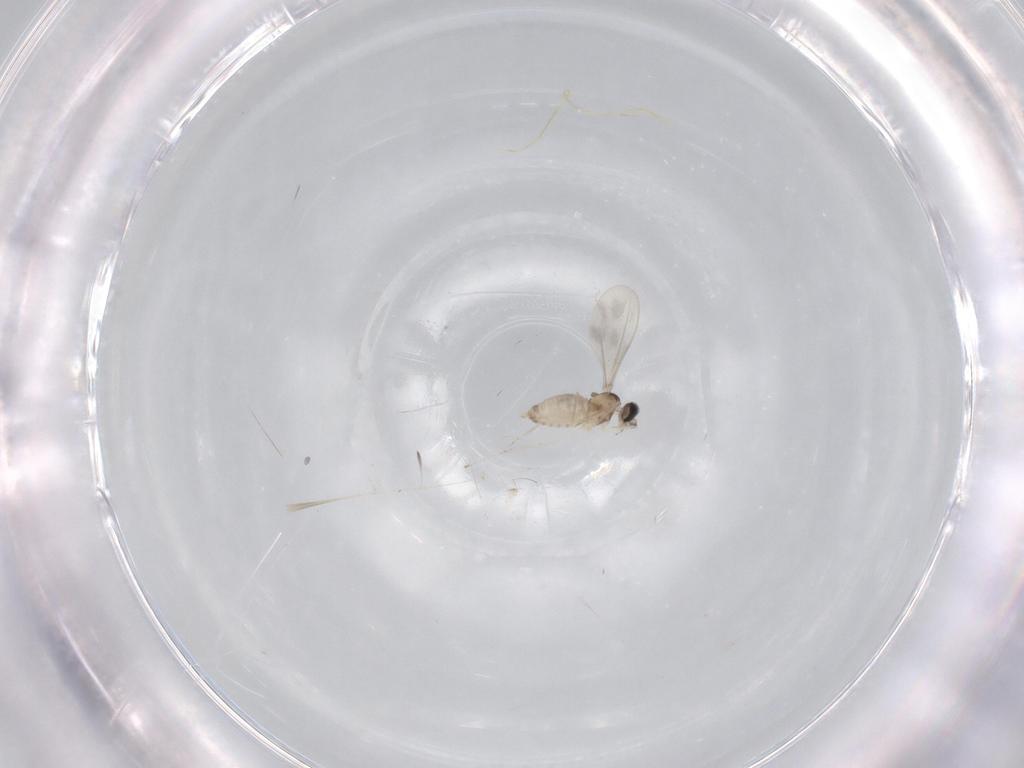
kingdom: Animalia
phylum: Arthropoda
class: Insecta
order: Diptera
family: Cecidomyiidae
